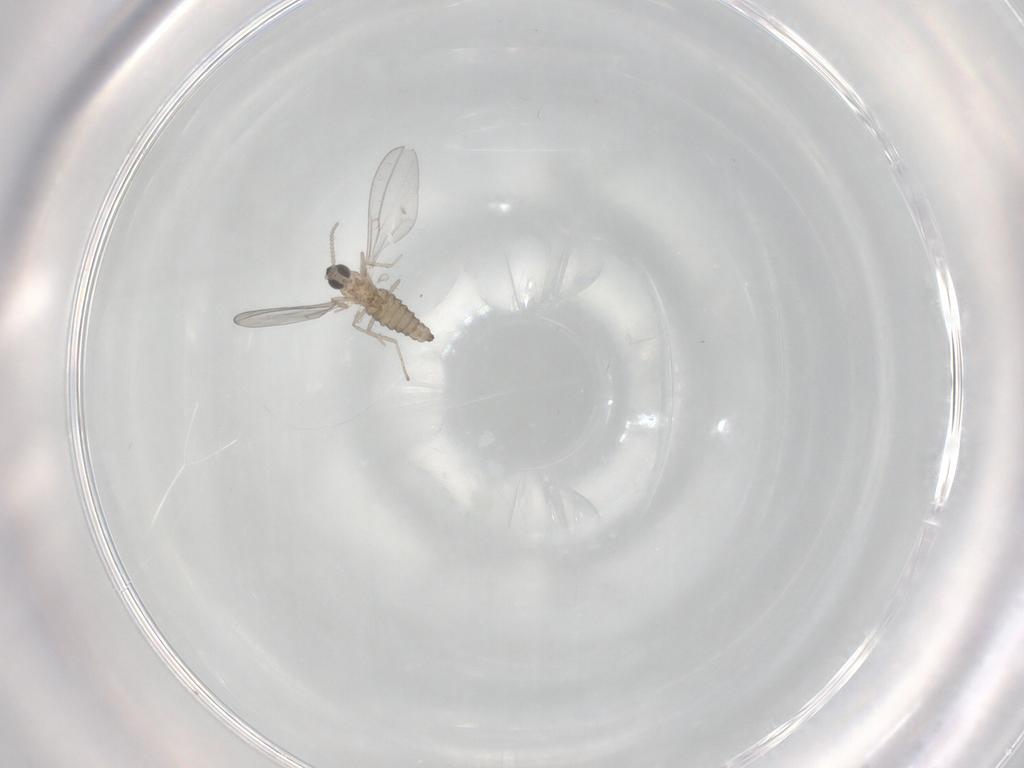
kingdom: Animalia
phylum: Arthropoda
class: Insecta
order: Diptera
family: Cecidomyiidae
